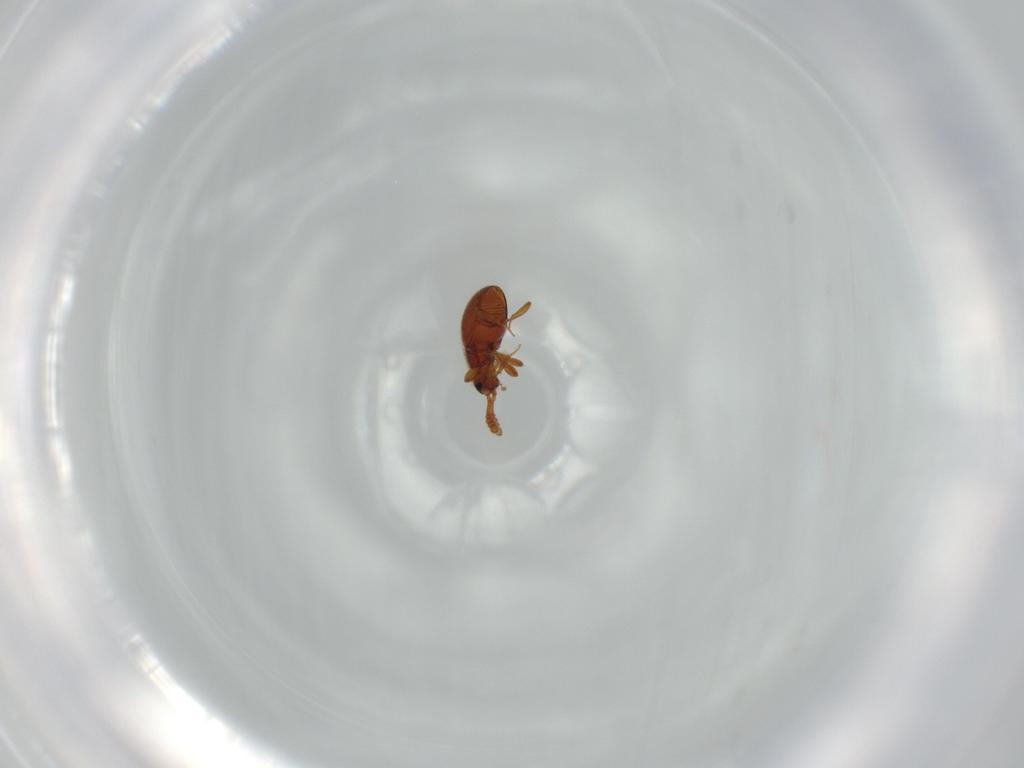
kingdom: Animalia
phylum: Arthropoda
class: Insecta
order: Coleoptera
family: Staphylinidae
